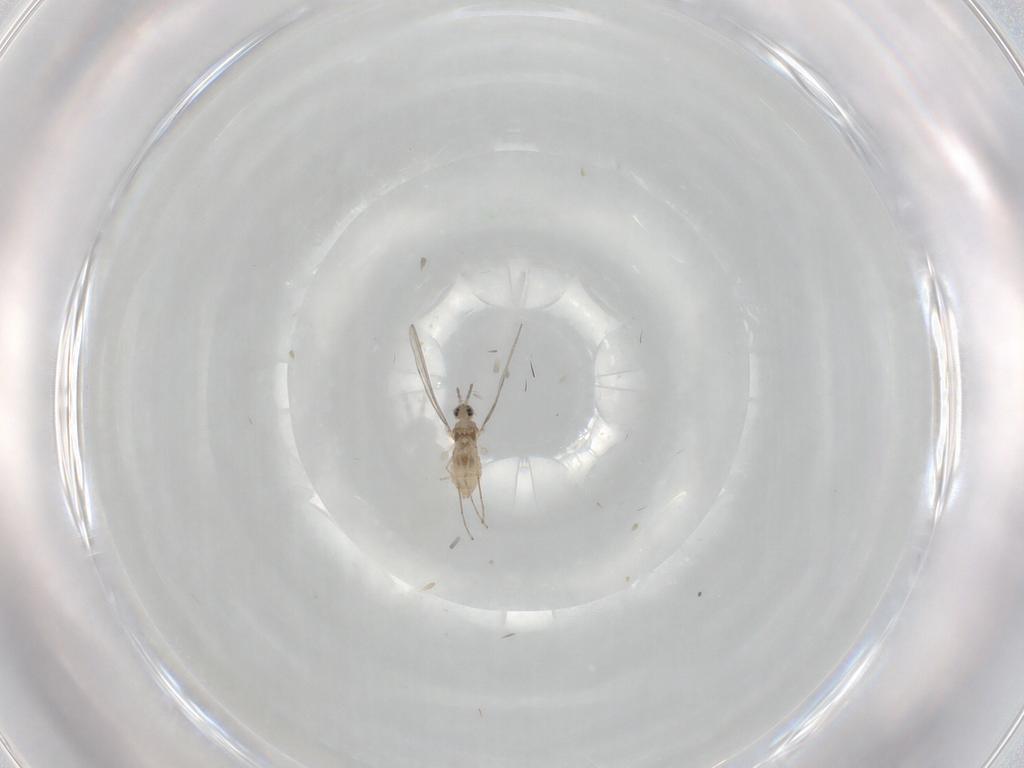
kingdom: Animalia
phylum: Arthropoda
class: Insecta
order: Diptera
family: Cecidomyiidae
